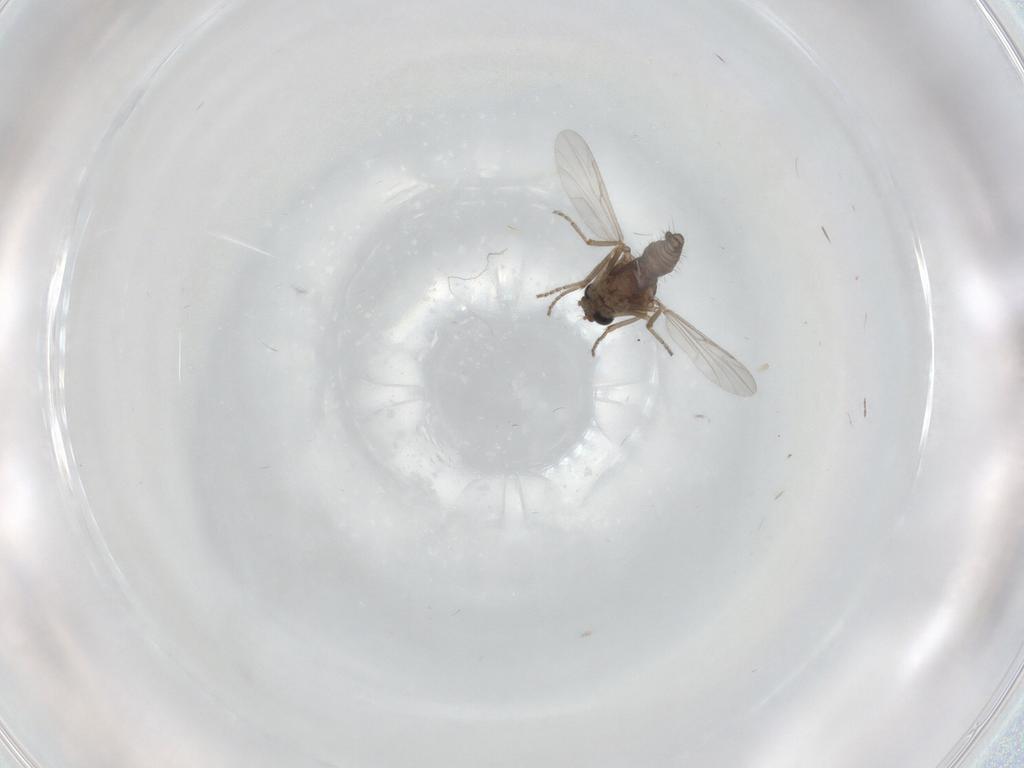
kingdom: Animalia
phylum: Arthropoda
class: Insecta
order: Diptera
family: Ceratopogonidae
